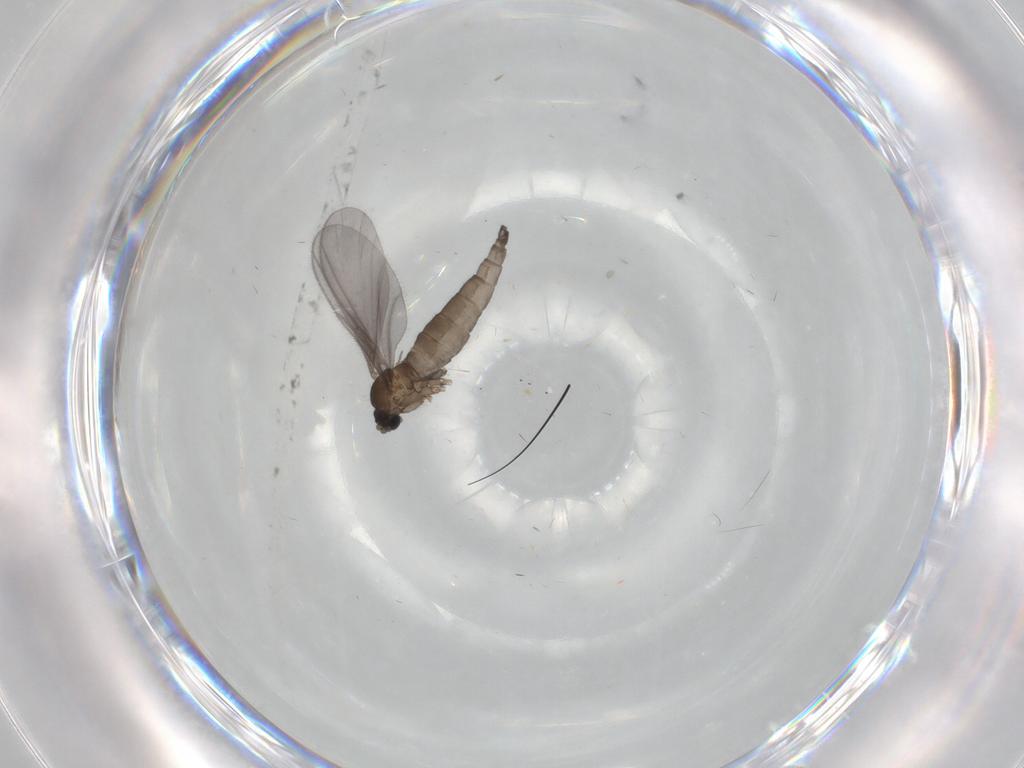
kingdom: Animalia
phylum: Arthropoda
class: Insecta
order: Diptera
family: Sciaridae
